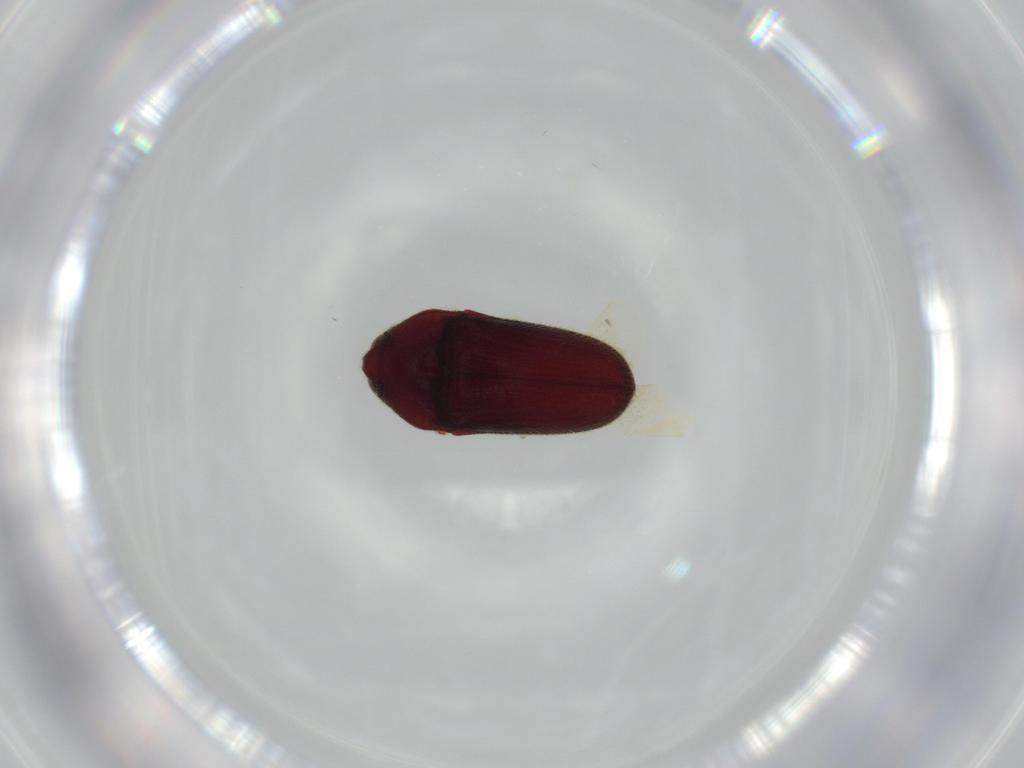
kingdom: Animalia
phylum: Arthropoda
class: Insecta
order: Coleoptera
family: Throscidae
